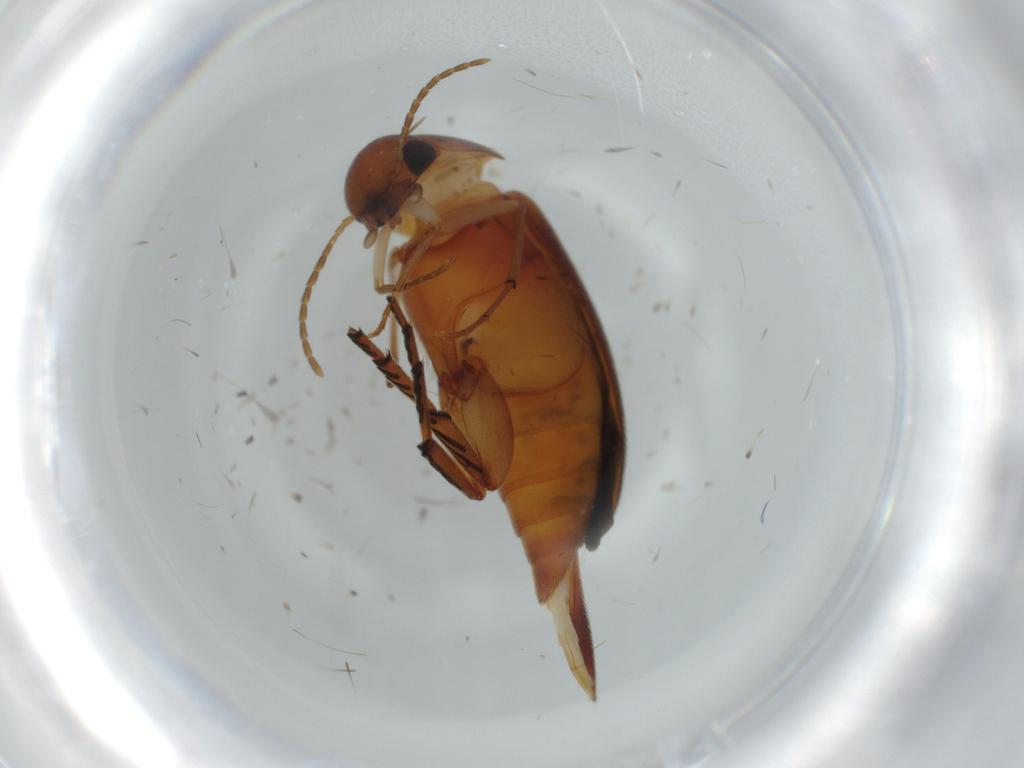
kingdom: Animalia
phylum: Arthropoda
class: Insecta
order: Coleoptera
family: Mordellidae
